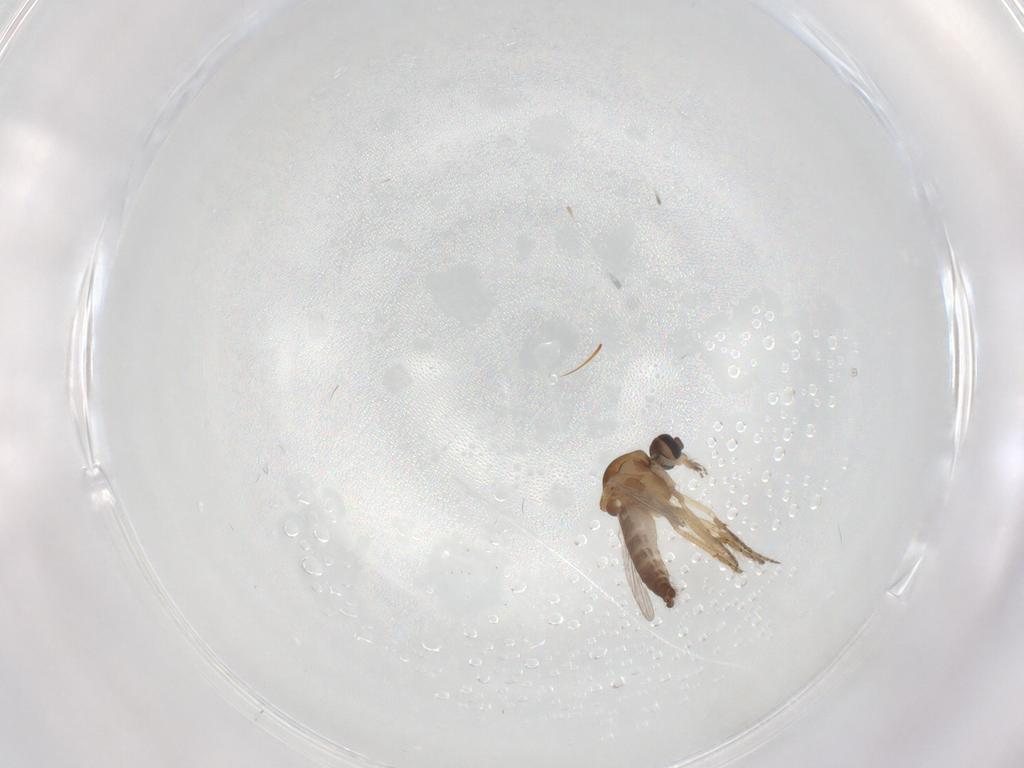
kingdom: Animalia
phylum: Arthropoda
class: Insecta
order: Diptera
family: Ceratopogonidae
